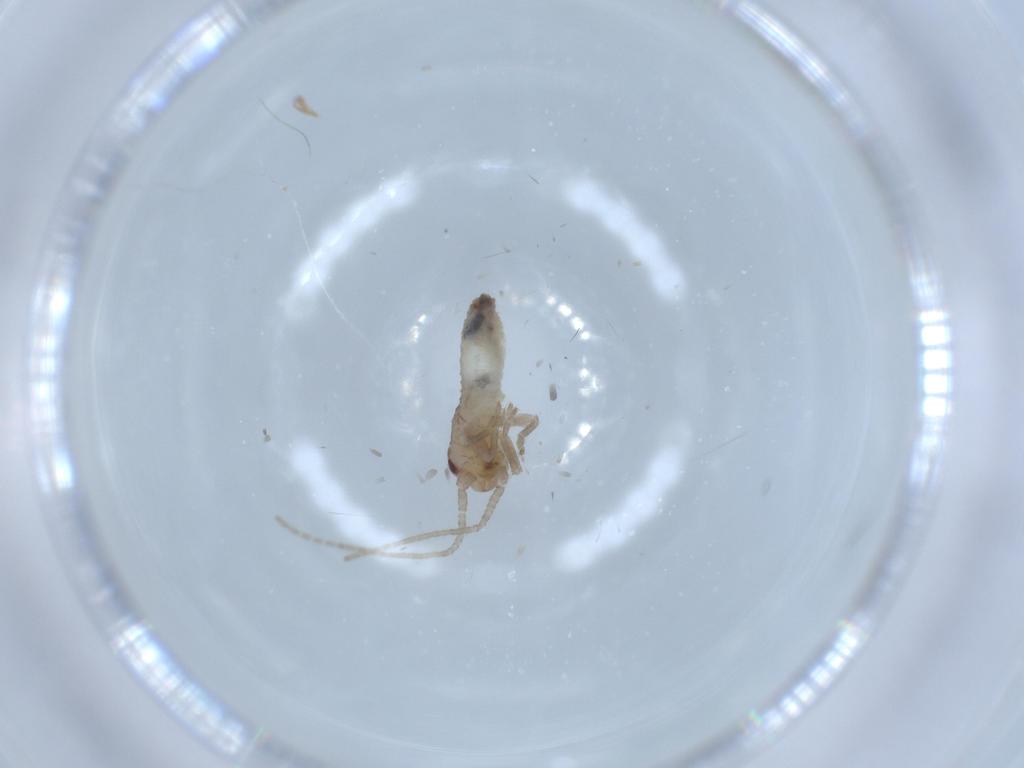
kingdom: Animalia
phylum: Arthropoda
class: Insecta
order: Orthoptera
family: Mogoplistidae
